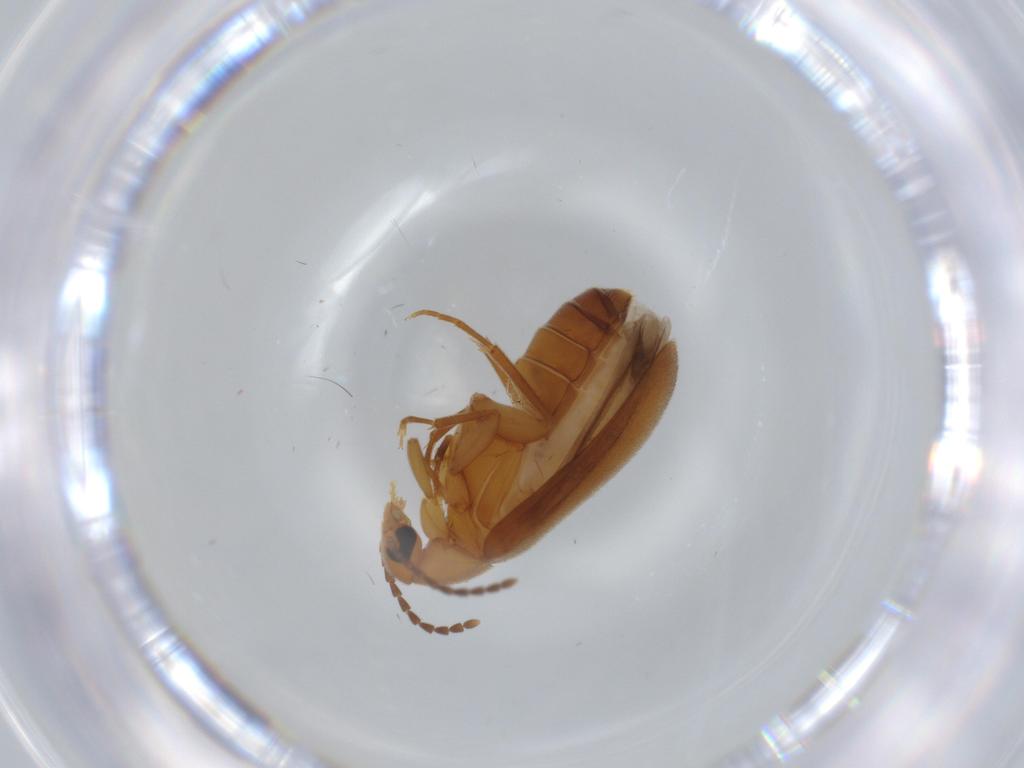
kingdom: Animalia
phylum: Arthropoda
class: Insecta
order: Coleoptera
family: Scraptiidae
